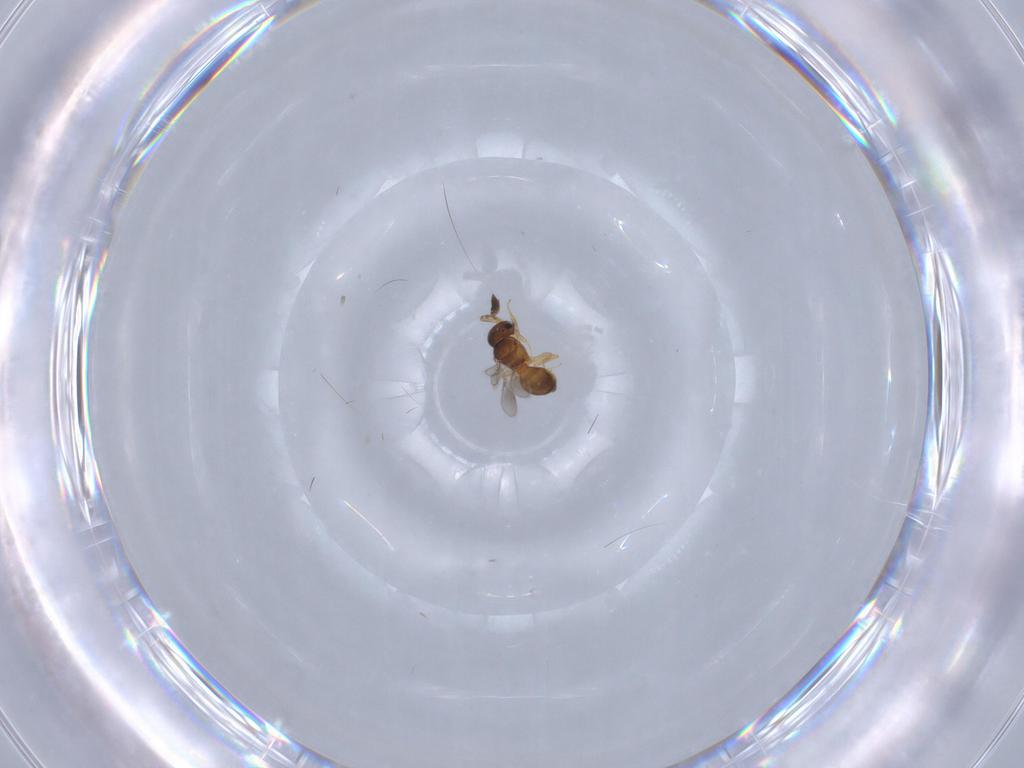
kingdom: Animalia
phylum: Arthropoda
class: Insecta
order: Hymenoptera
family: Scelionidae
